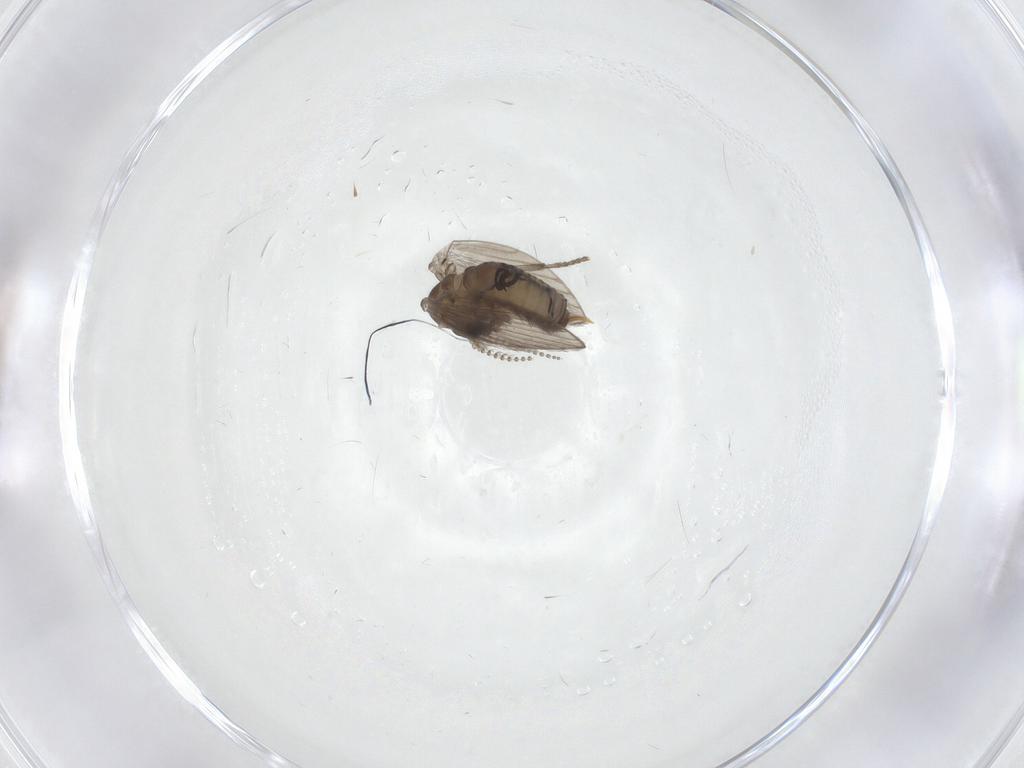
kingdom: Animalia
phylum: Arthropoda
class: Insecta
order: Diptera
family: Psychodidae
